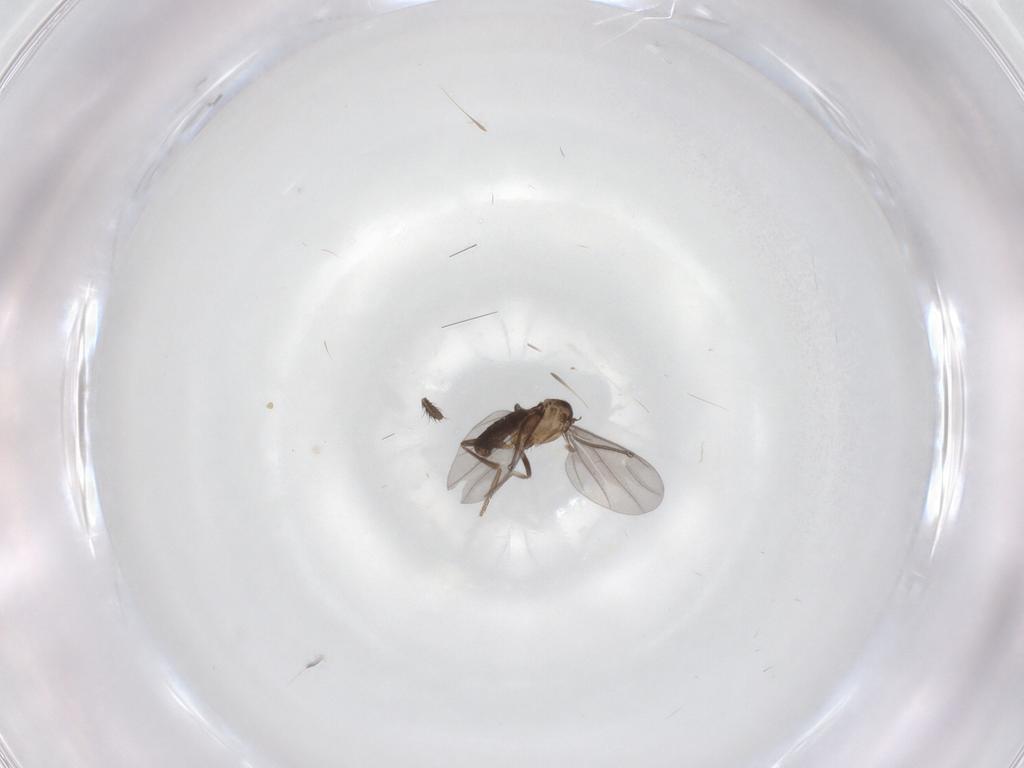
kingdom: Animalia
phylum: Arthropoda
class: Insecta
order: Diptera
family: Phoridae
